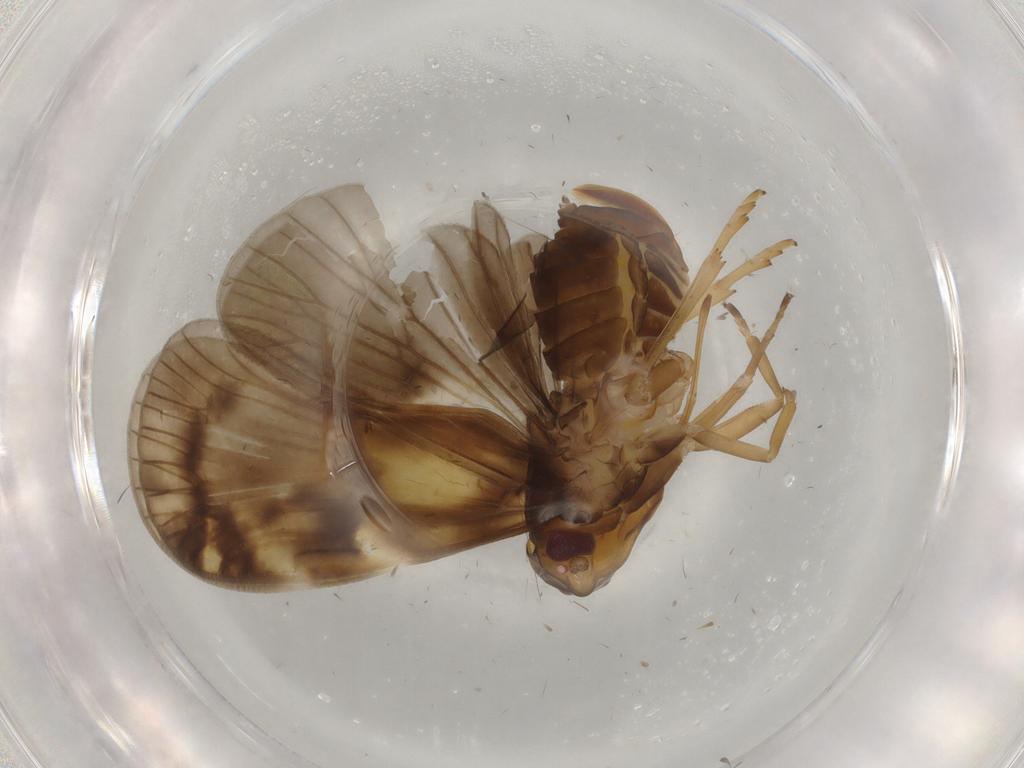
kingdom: Animalia
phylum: Arthropoda
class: Insecta
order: Hemiptera
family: Cixiidae
